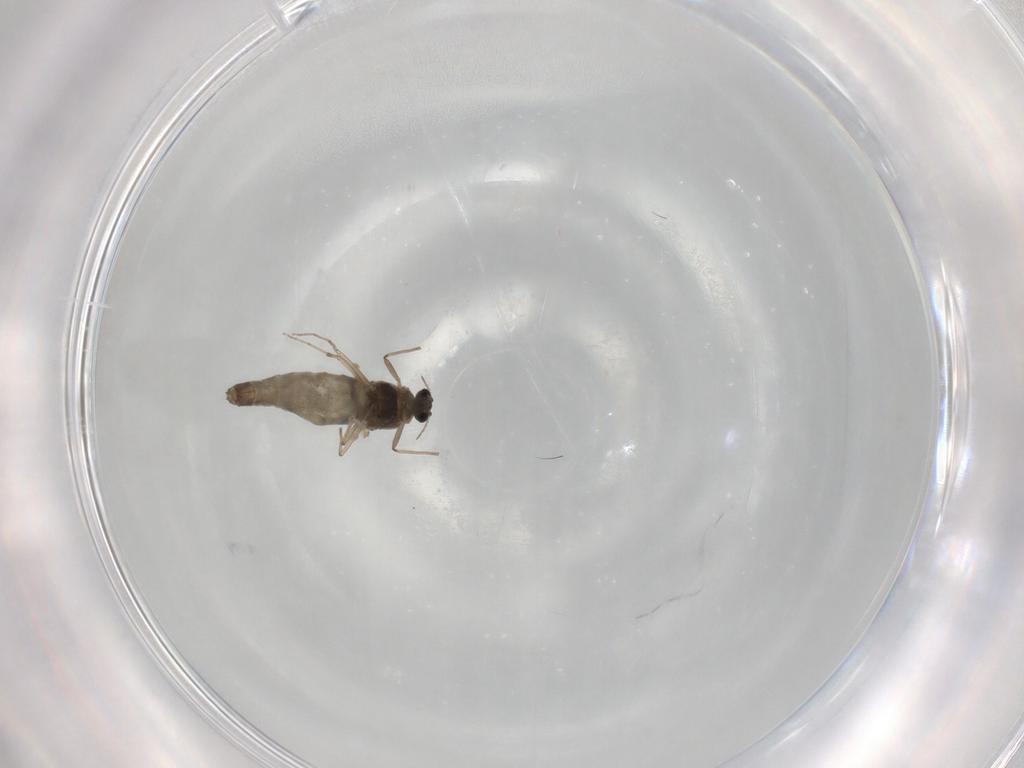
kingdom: Animalia
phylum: Arthropoda
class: Insecta
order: Diptera
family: Chironomidae
